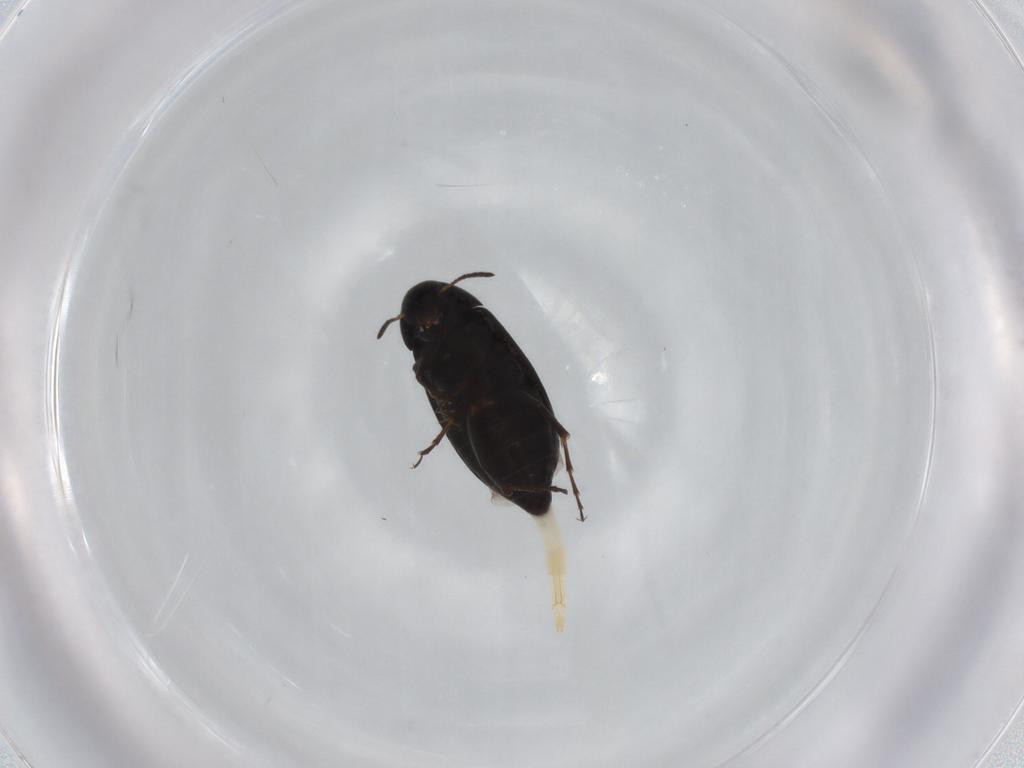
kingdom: Animalia
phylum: Arthropoda
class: Insecta
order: Coleoptera
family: Scraptiidae
